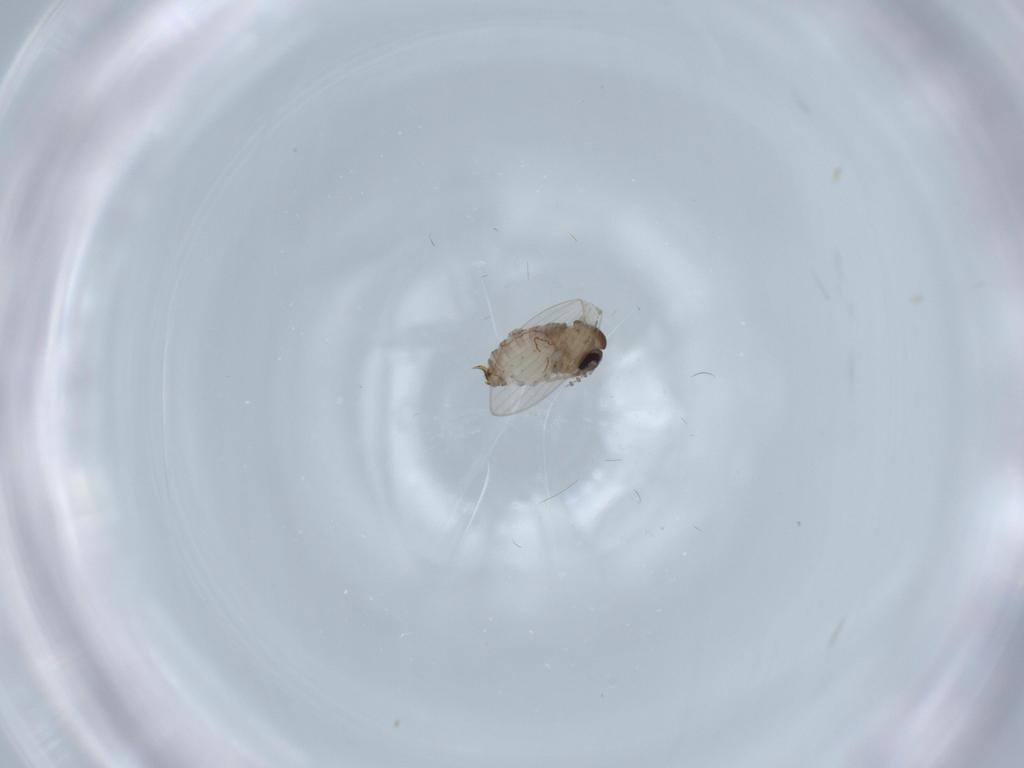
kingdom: Animalia
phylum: Arthropoda
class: Insecta
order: Diptera
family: Psychodidae
